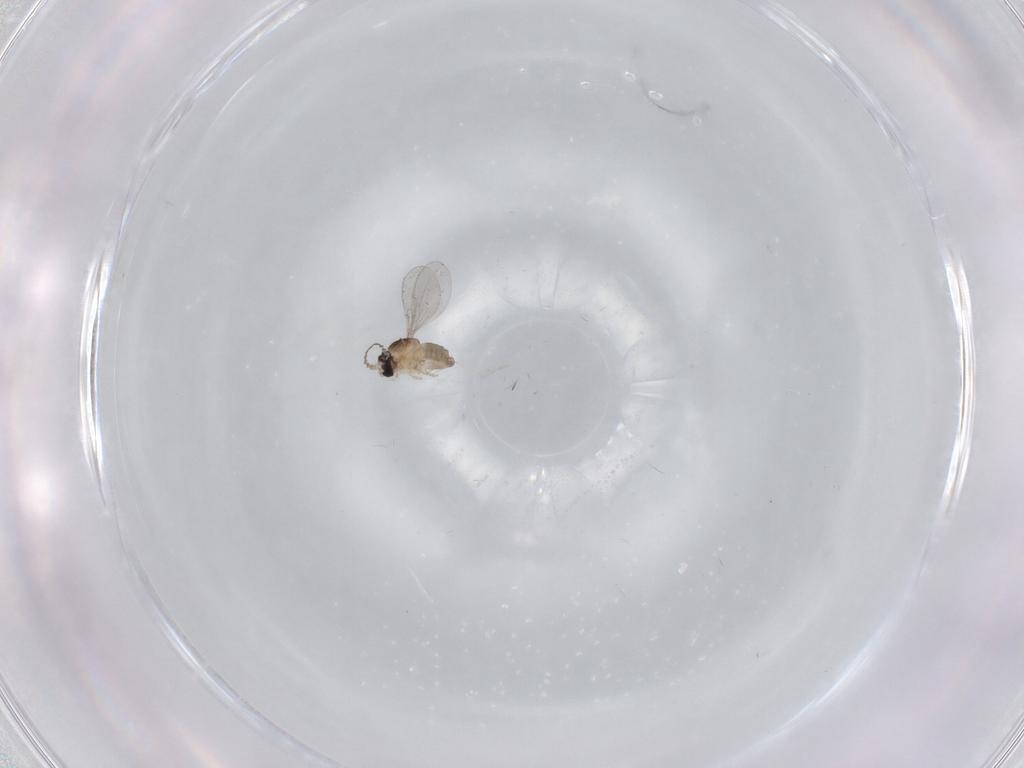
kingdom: Animalia
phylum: Arthropoda
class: Insecta
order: Diptera
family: Cecidomyiidae
